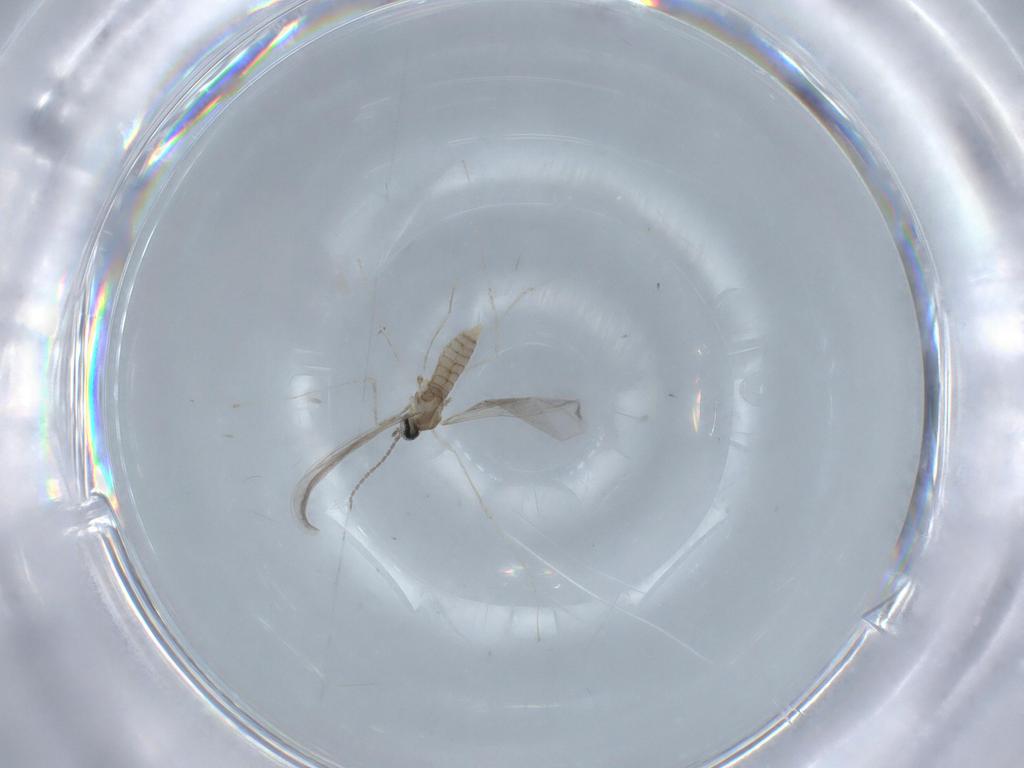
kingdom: Animalia
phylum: Arthropoda
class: Insecta
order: Diptera
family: Cecidomyiidae
